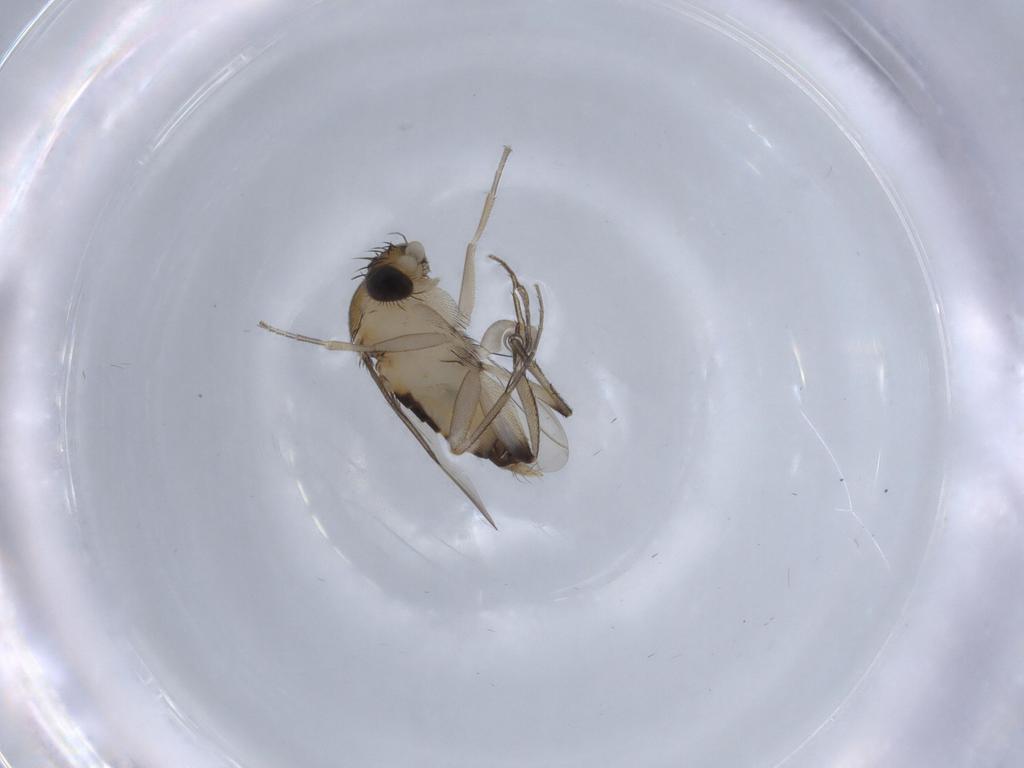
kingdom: Animalia
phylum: Arthropoda
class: Insecta
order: Diptera
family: Phoridae
